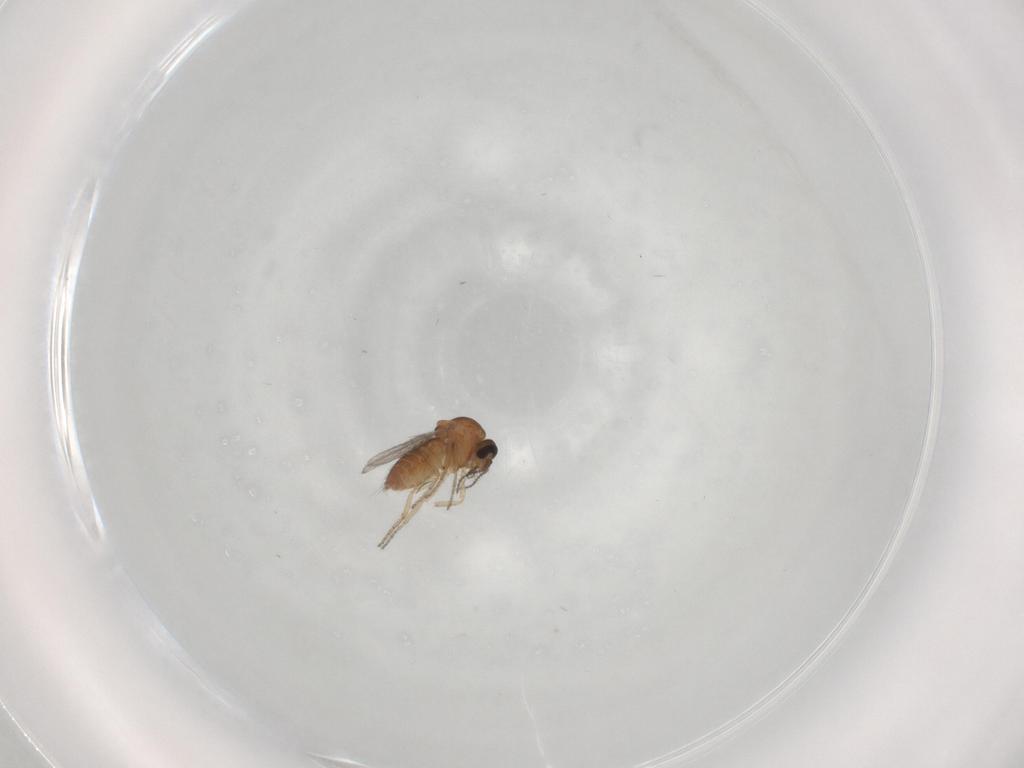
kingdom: Animalia
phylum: Arthropoda
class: Insecta
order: Diptera
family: Ceratopogonidae
